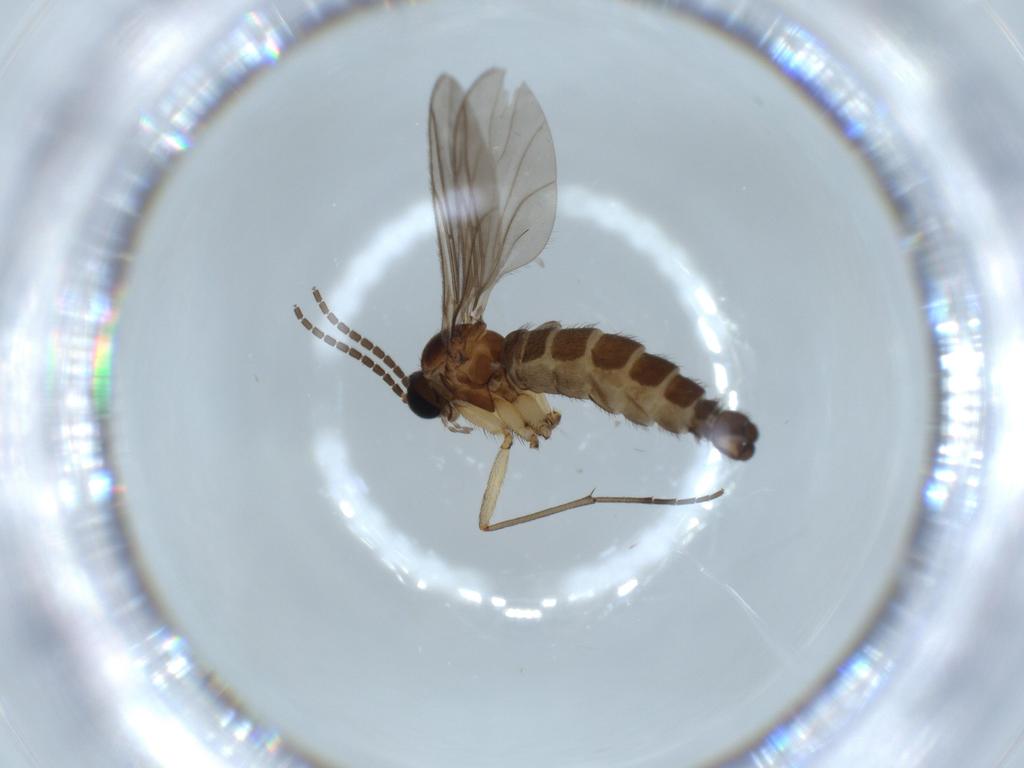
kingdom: Animalia
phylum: Arthropoda
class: Insecta
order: Diptera
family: Sciaridae
